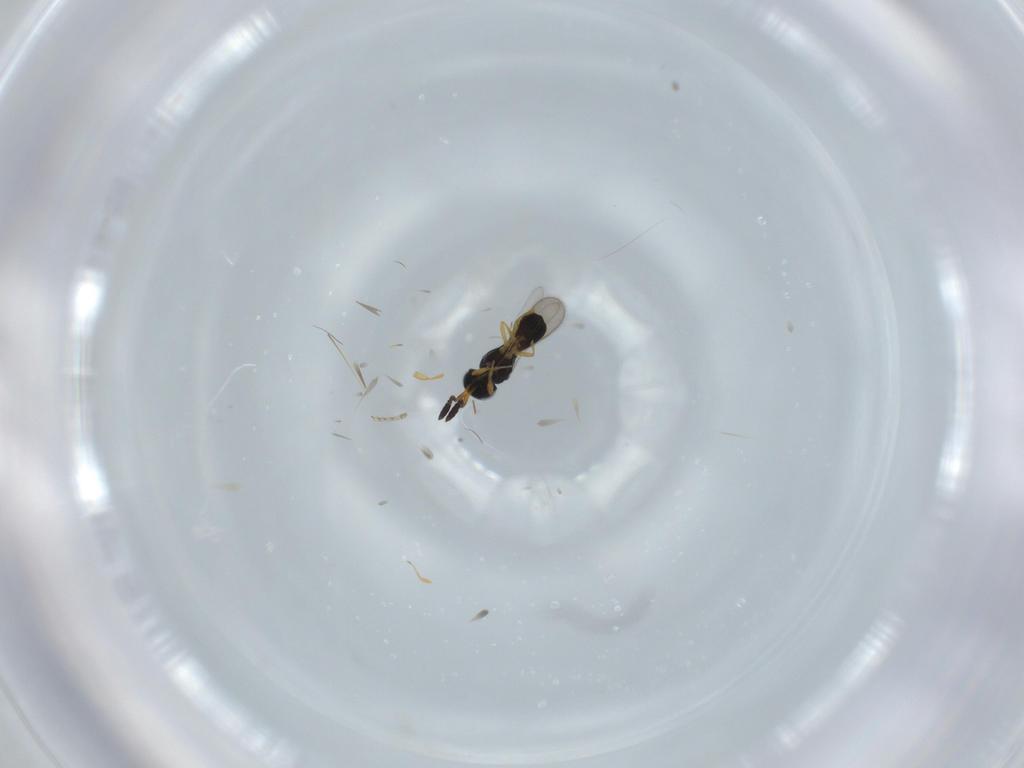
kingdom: Animalia
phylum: Arthropoda
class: Insecta
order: Hymenoptera
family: Scelionidae
